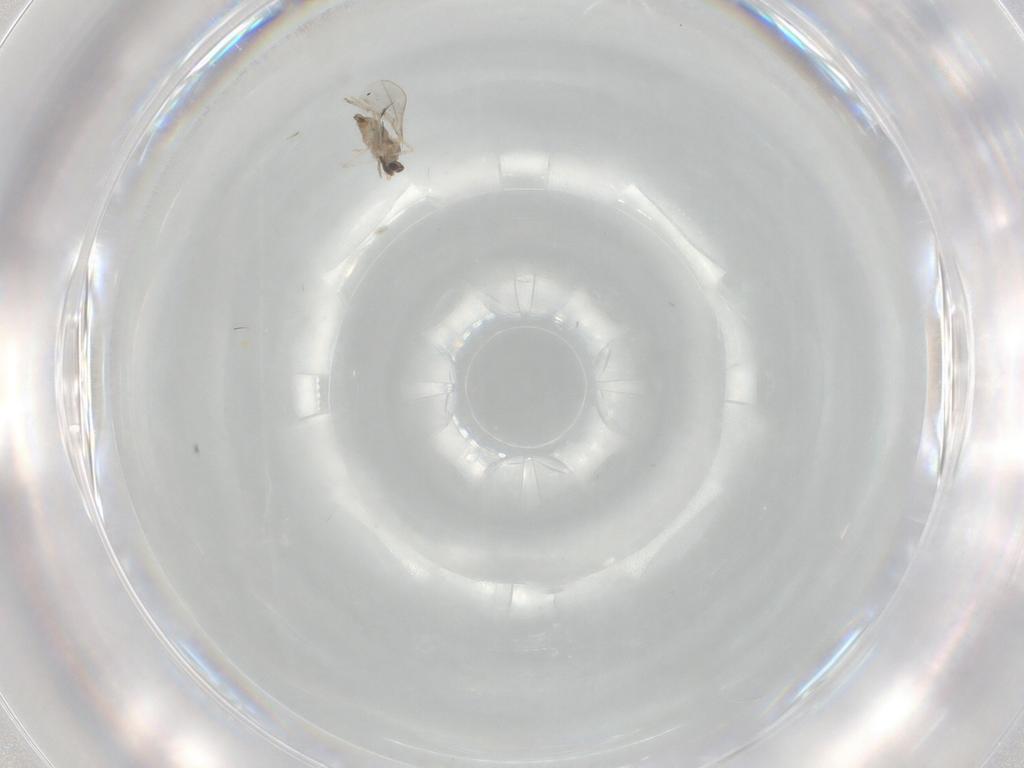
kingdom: Animalia
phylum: Arthropoda
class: Insecta
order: Diptera
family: Cecidomyiidae
